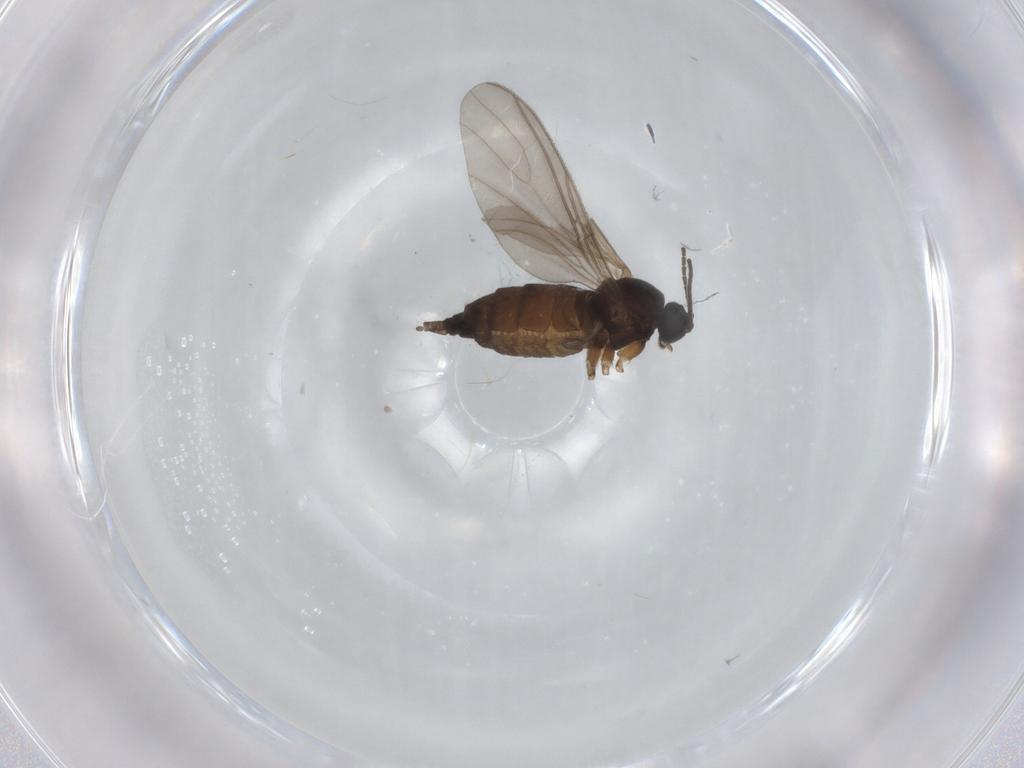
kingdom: Animalia
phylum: Arthropoda
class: Insecta
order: Diptera
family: Sciaridae
